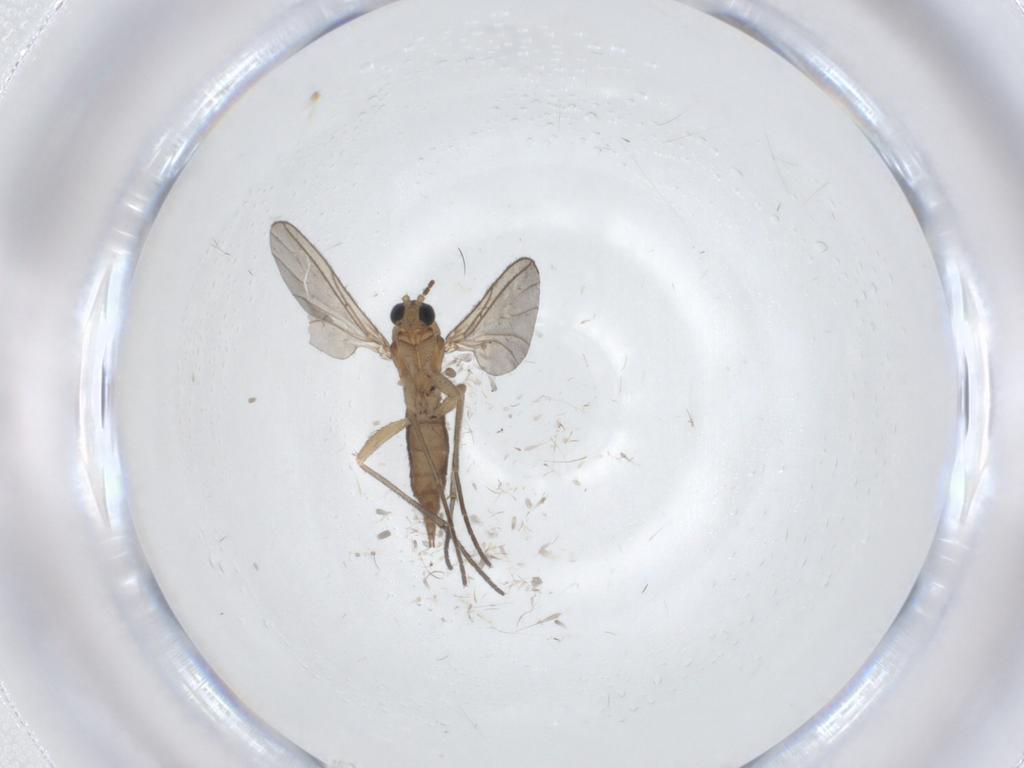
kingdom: Animalia
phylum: Arthropoda
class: Insecta
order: Diptera
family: Sciaridae
